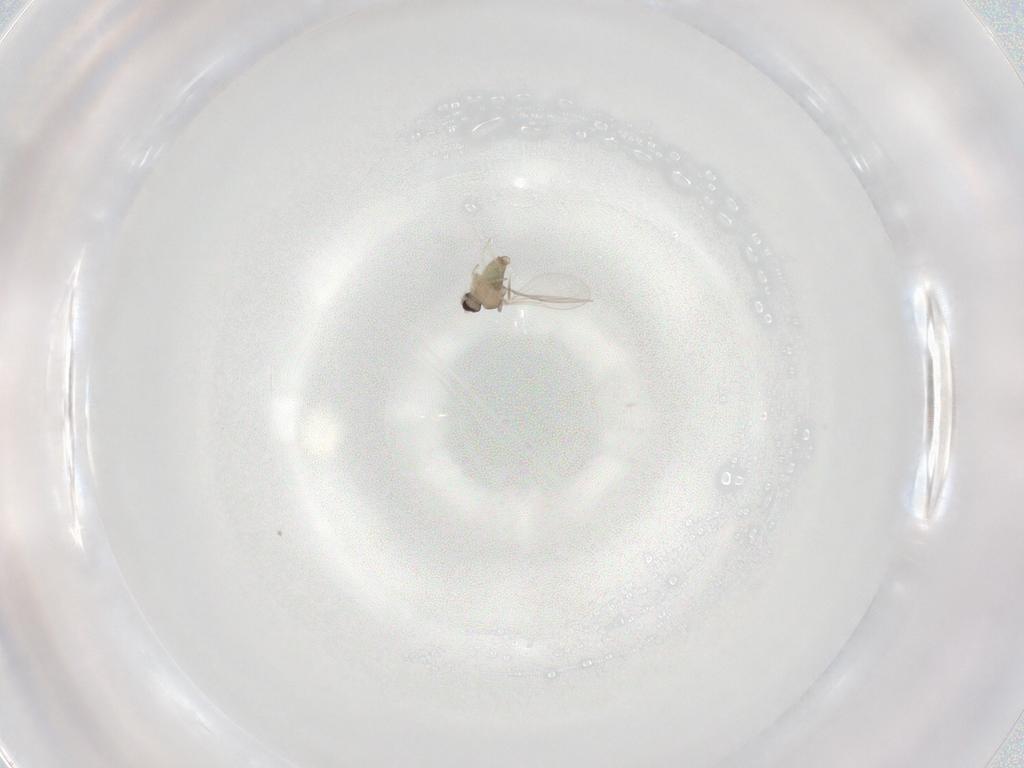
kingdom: Animalia
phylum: Arthropoda
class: Insecta
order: Diptera
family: Cecidomyiidae
